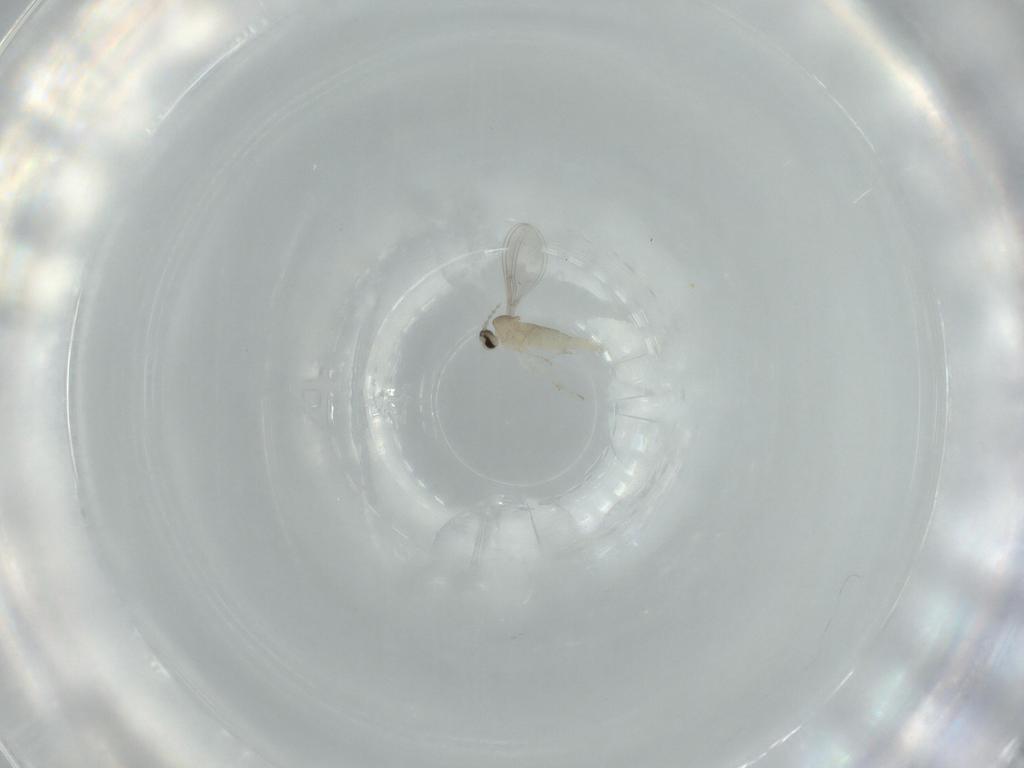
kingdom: Animalia
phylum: Arthropoda
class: Insecta
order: Diptera
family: Cecidomyiidae
